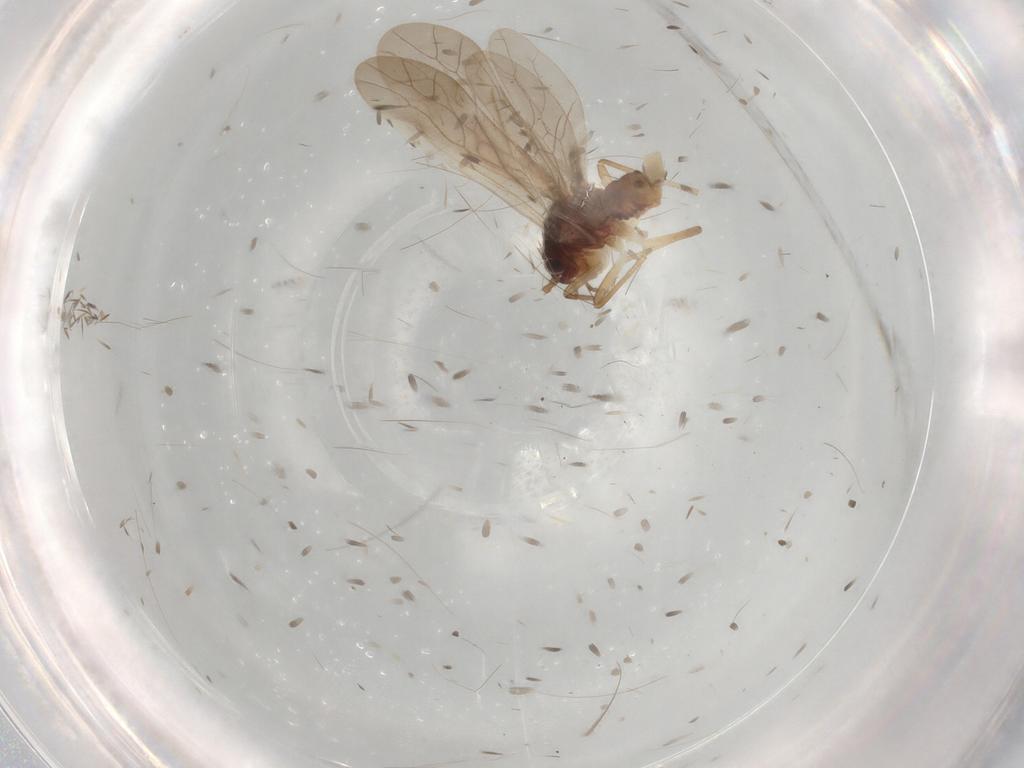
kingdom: Animalia
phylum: Arthropoda
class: Insecta
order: Psocodea
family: Caeciliusidae
